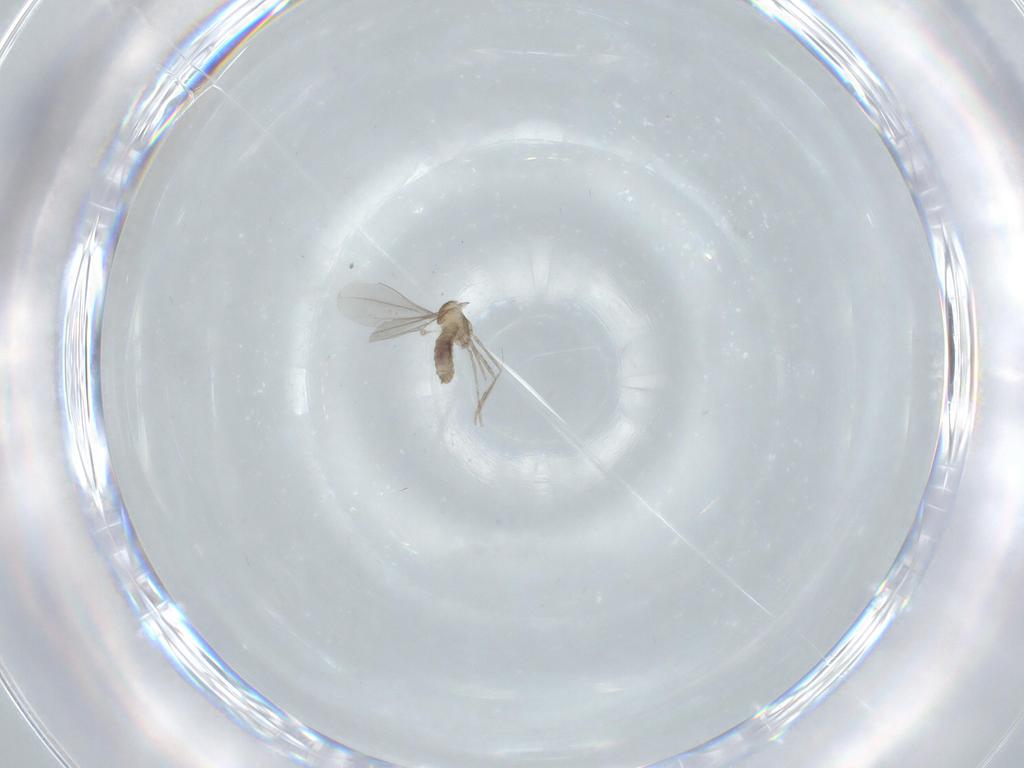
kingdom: Animalia
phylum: Arthropoda
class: Insecta
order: Diptera
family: Cecidomyiidae
